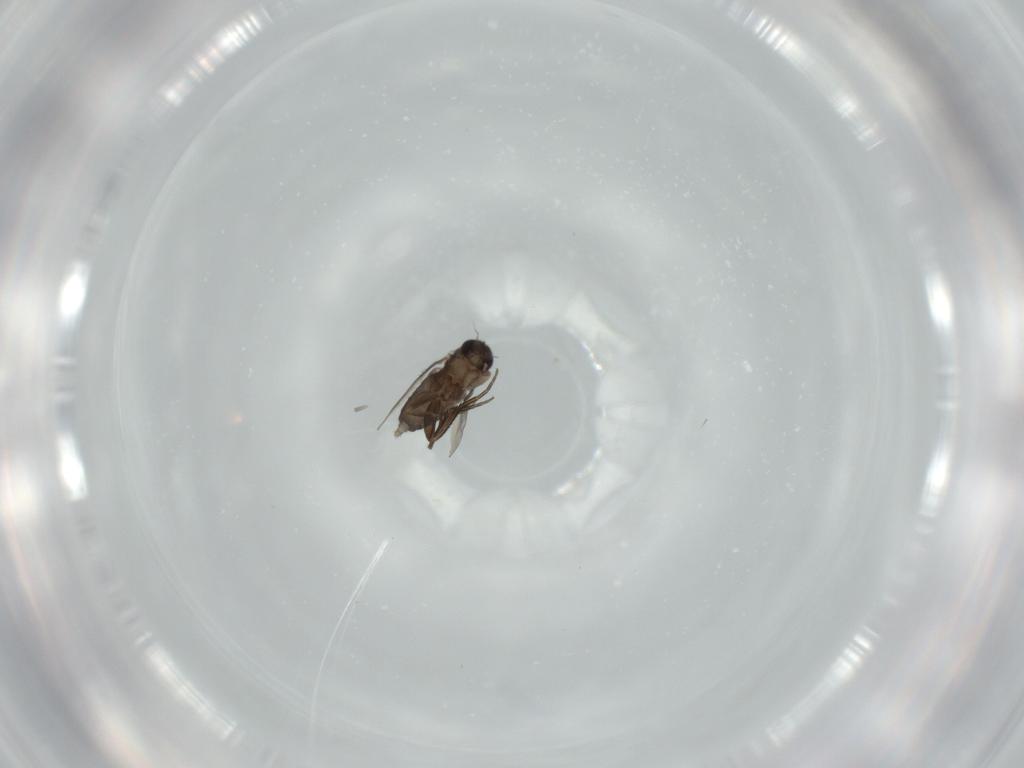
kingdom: Animalia
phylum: Arthropoda
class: Insecta
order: Diptera
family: Phoridae
